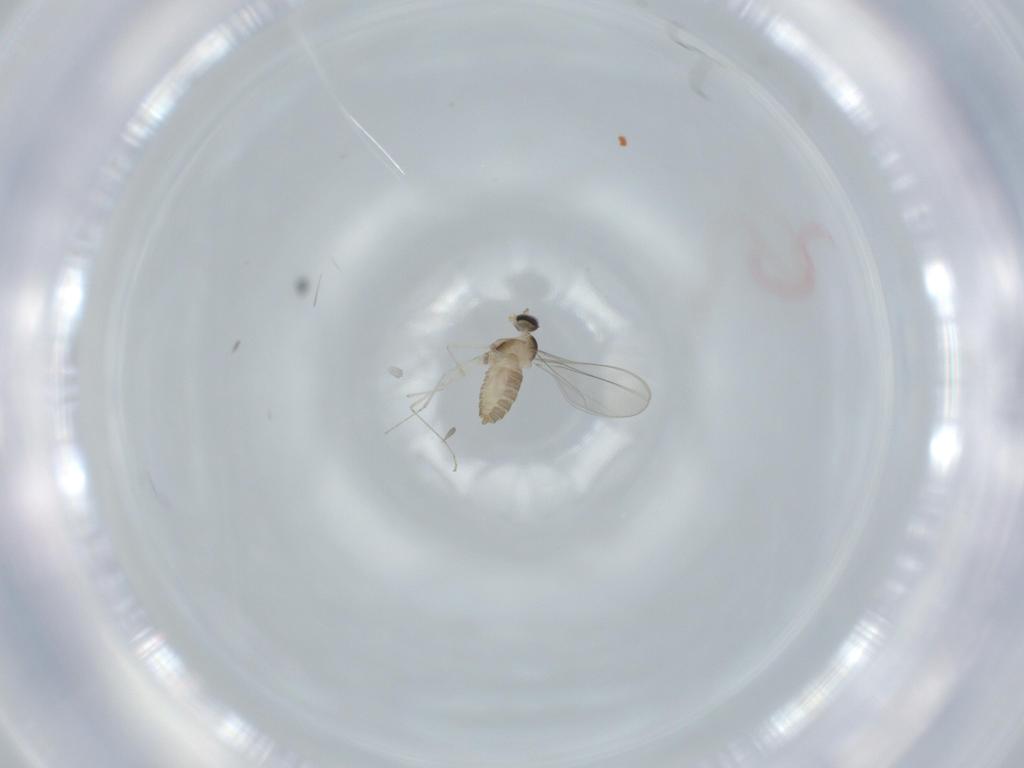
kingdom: Animalia
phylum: Arthropoda
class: Insecta
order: Diptera
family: Cecidomyiidae
